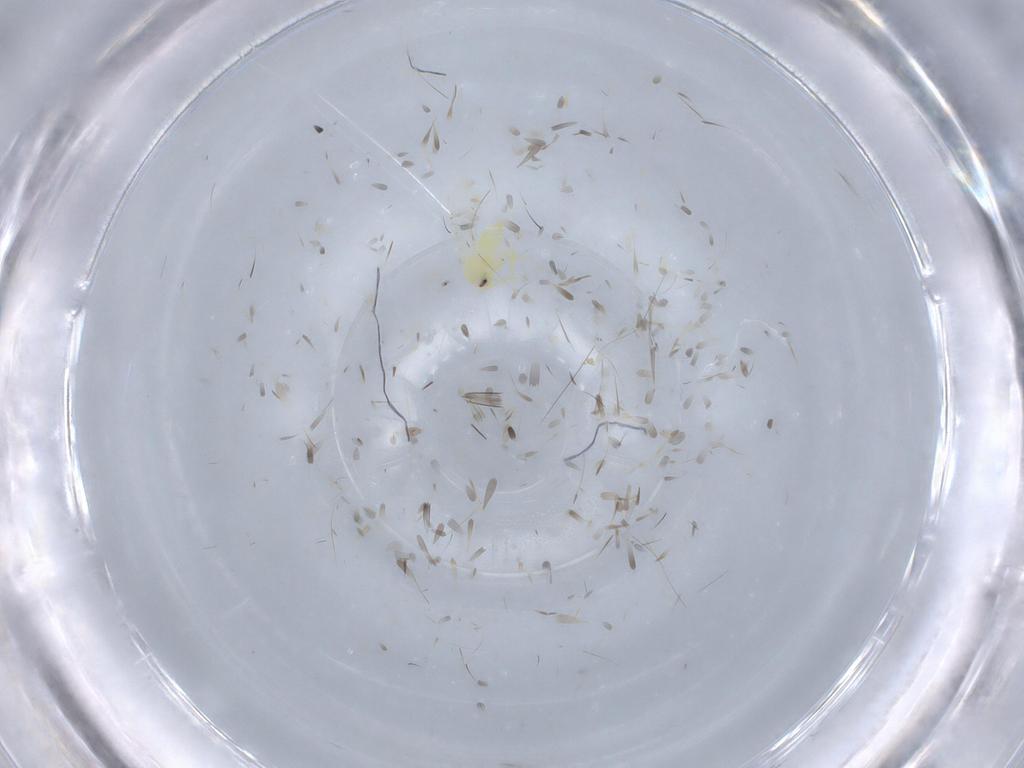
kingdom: Animalia
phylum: Arthropoda
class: Insecta
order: Hemiptera
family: Aleyrodidae
